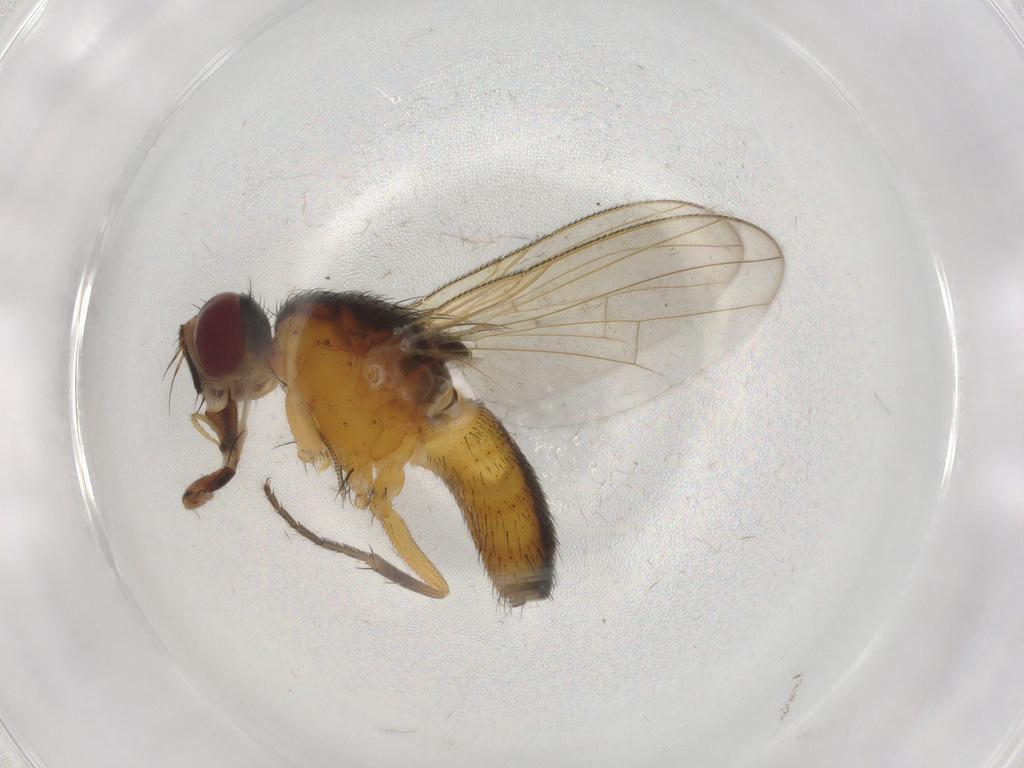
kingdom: Animalia
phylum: Arthropoda
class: Insecta
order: Diptera
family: Muscidae
